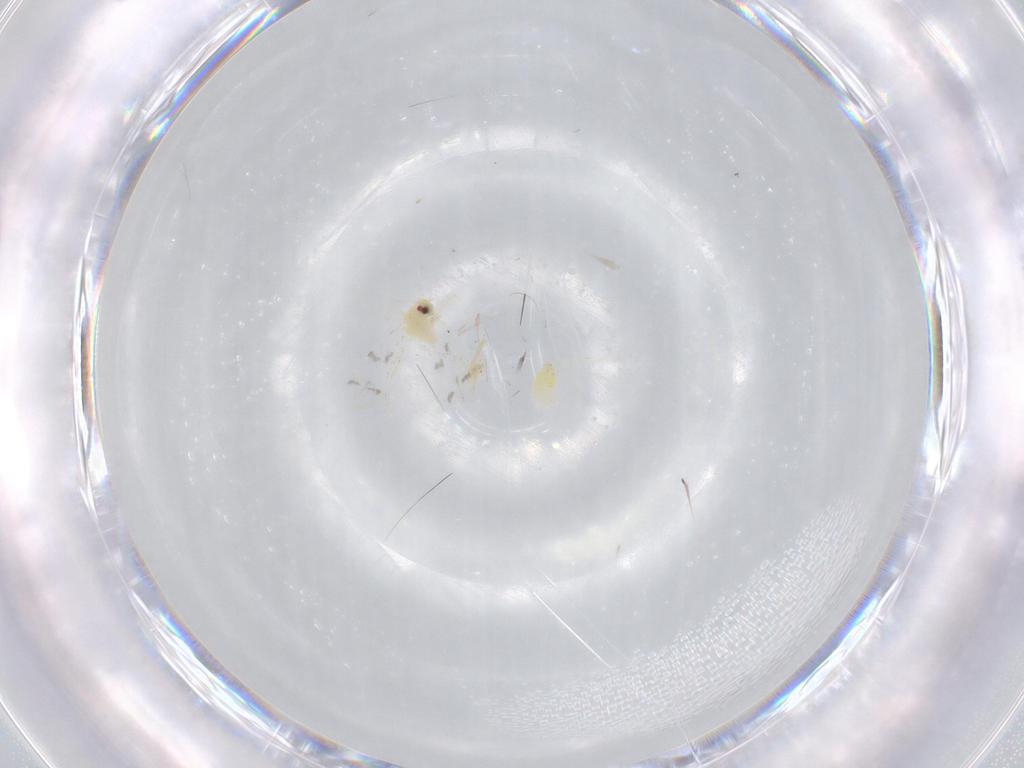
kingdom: Animalia
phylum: Arthropoda
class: Insecta
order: Hemiptera
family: Aleyrodidae
